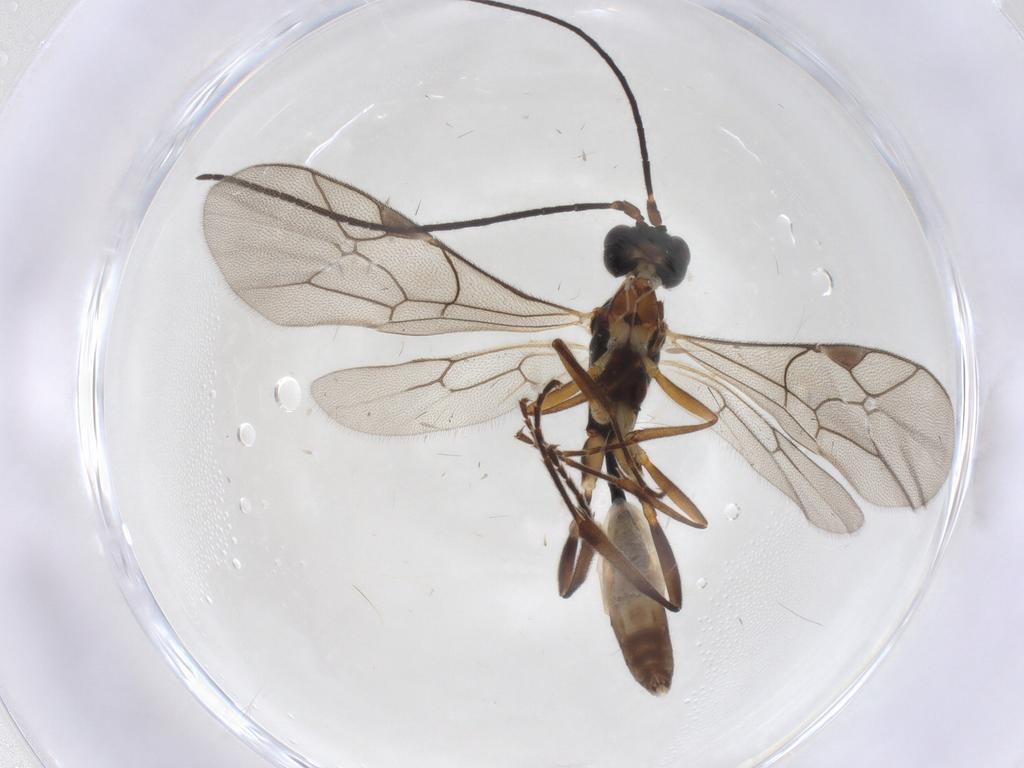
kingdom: Animalia
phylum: Arthropoda
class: Insecta
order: Hymenoptera
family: Ichneumonidae
